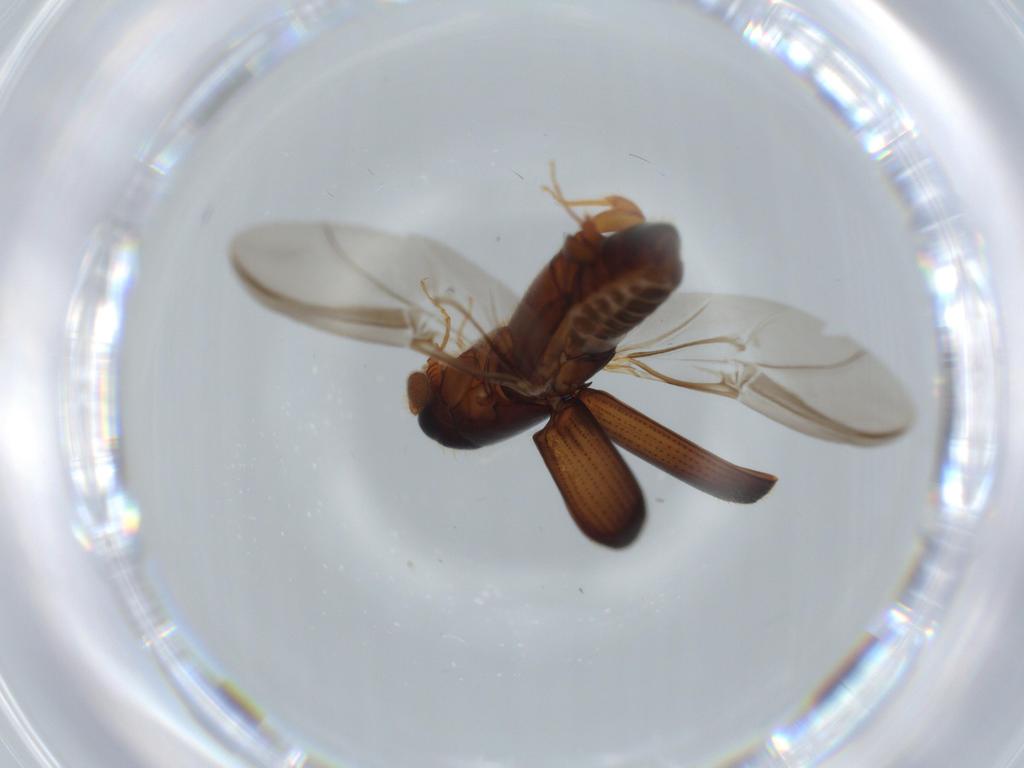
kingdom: Animalia
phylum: Arthropoda
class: Insecta
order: Coleoptera
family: Curculionidae
